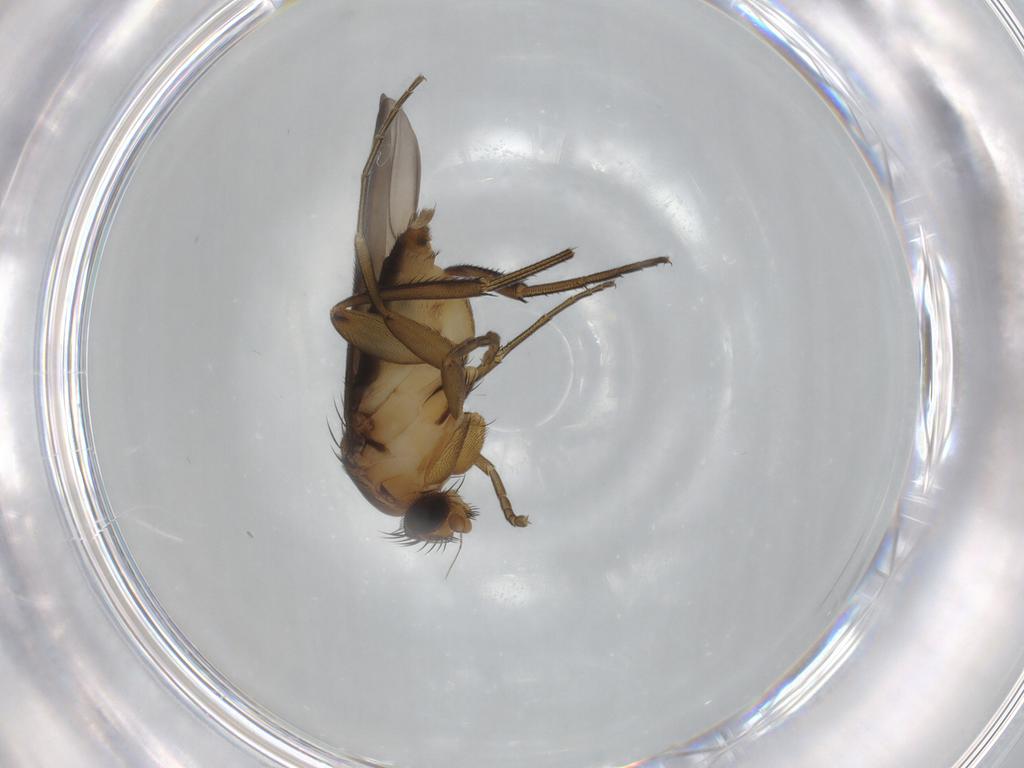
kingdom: Animalia
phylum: Arthropoda
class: Insecta
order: Diptera
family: Phoridae
